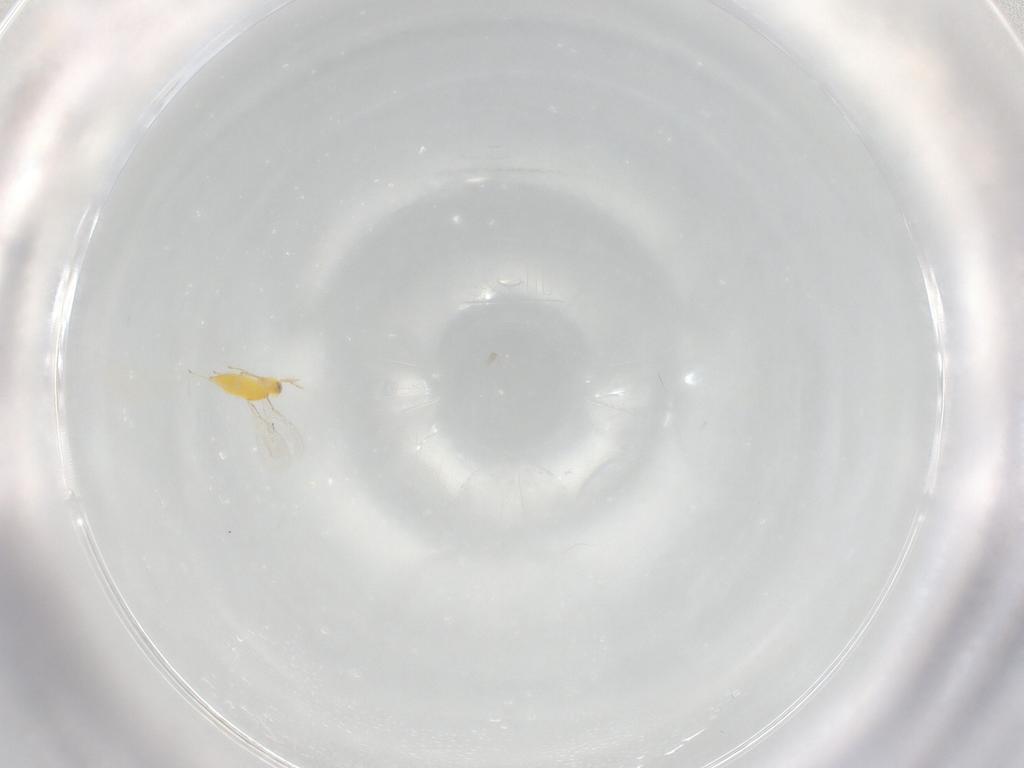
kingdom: Animalia
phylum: Arthropoda
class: Insecta
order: Hymenoptera
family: Aphelinidae
